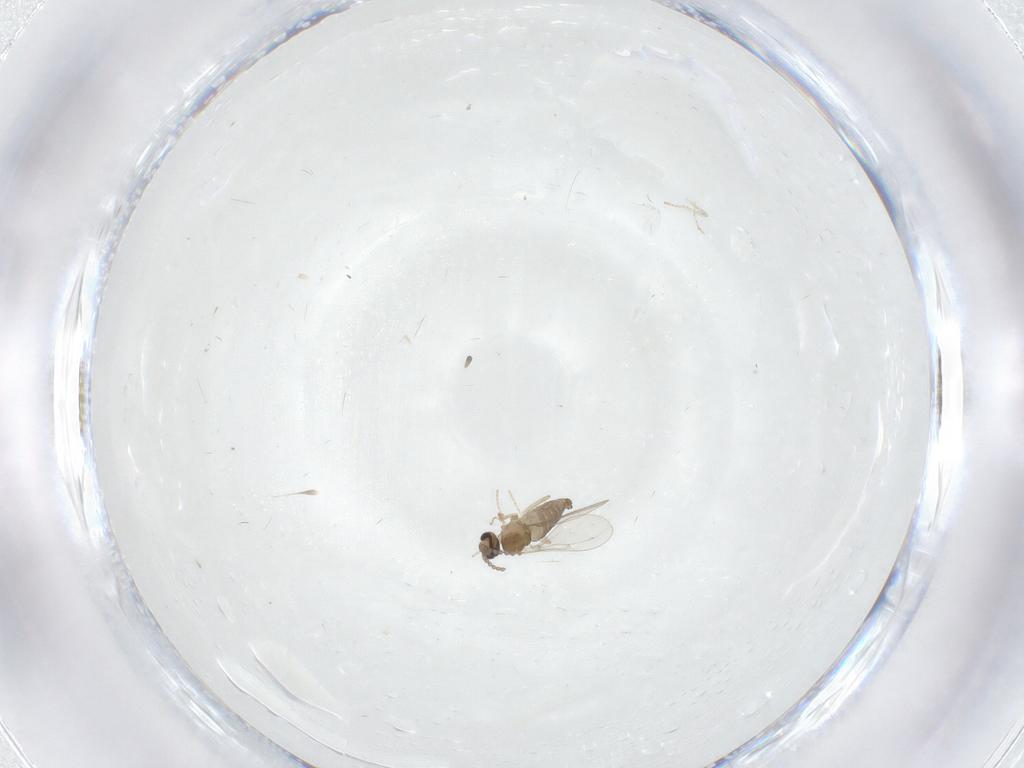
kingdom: Animalia
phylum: Arthropoda
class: Insecta
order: Diptera
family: Cecidomyiidae
